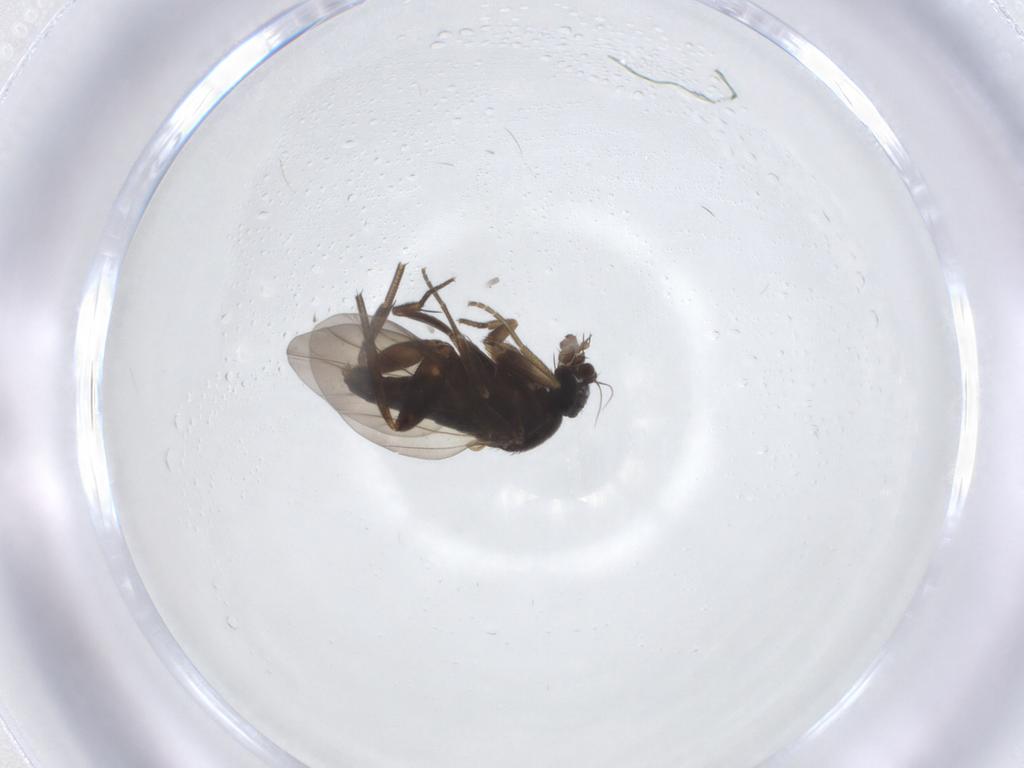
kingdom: Animalia
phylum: Arthropoda
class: Insecta
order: Diptera
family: Phoridae
